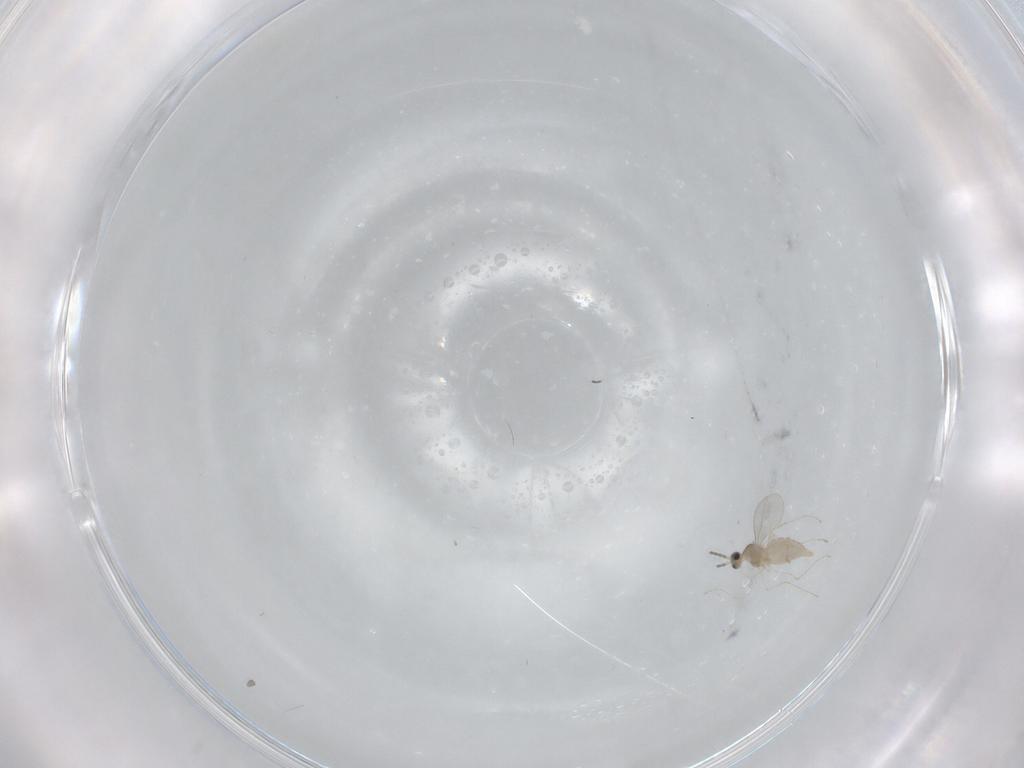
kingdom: Animalia
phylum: Arthropoda
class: Insecta
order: Diptera
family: Cecidomyiidae
